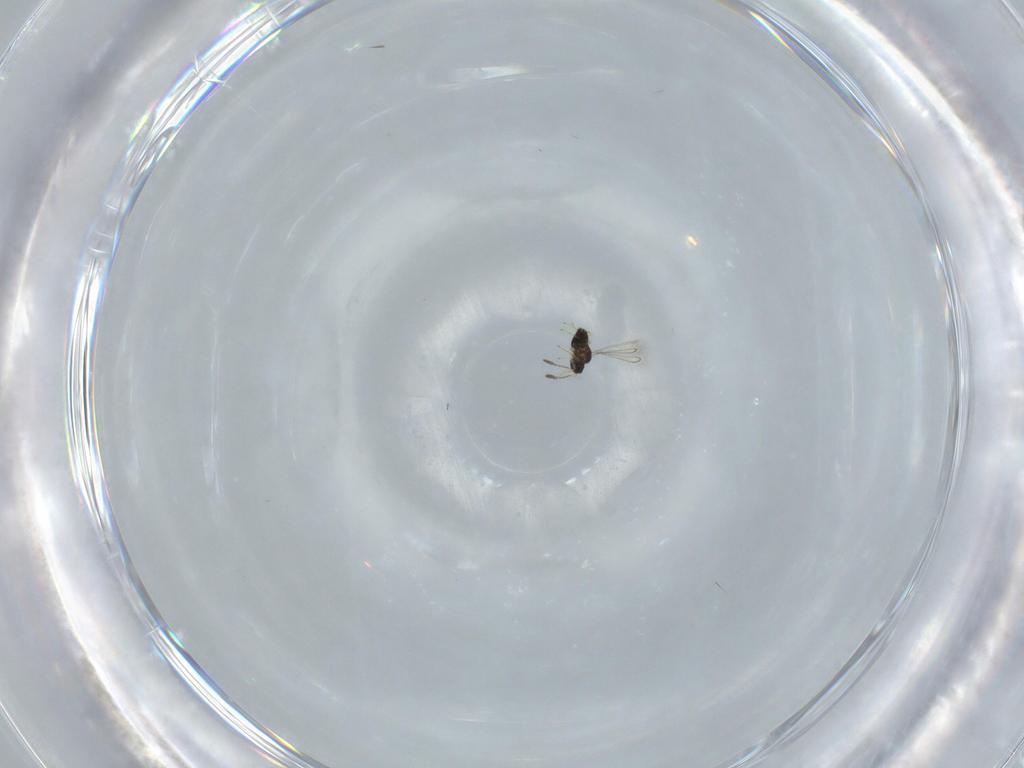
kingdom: Animalia
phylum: Arthropoda
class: Insecta
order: Hymenoptera
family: Mymaridae
